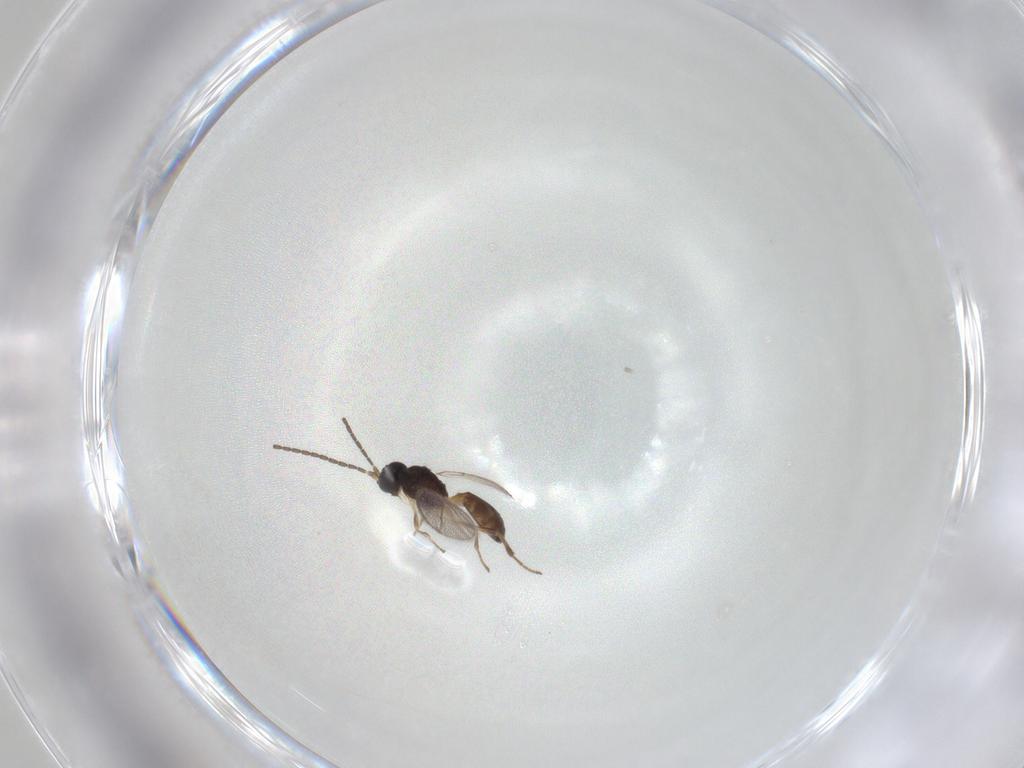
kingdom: Animalia
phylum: Arthropoda
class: Insecta
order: Hymenoptera
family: Braconidae
